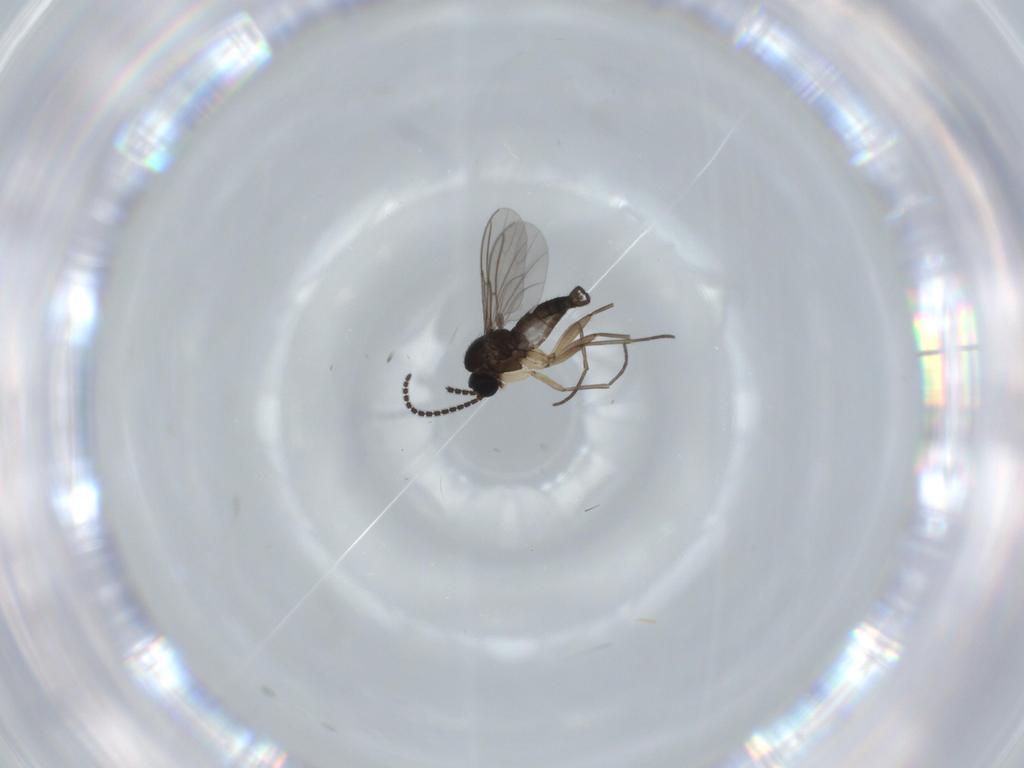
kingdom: Animalia
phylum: Arthropoda
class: Insecta
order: Diptera
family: Sciaridae
